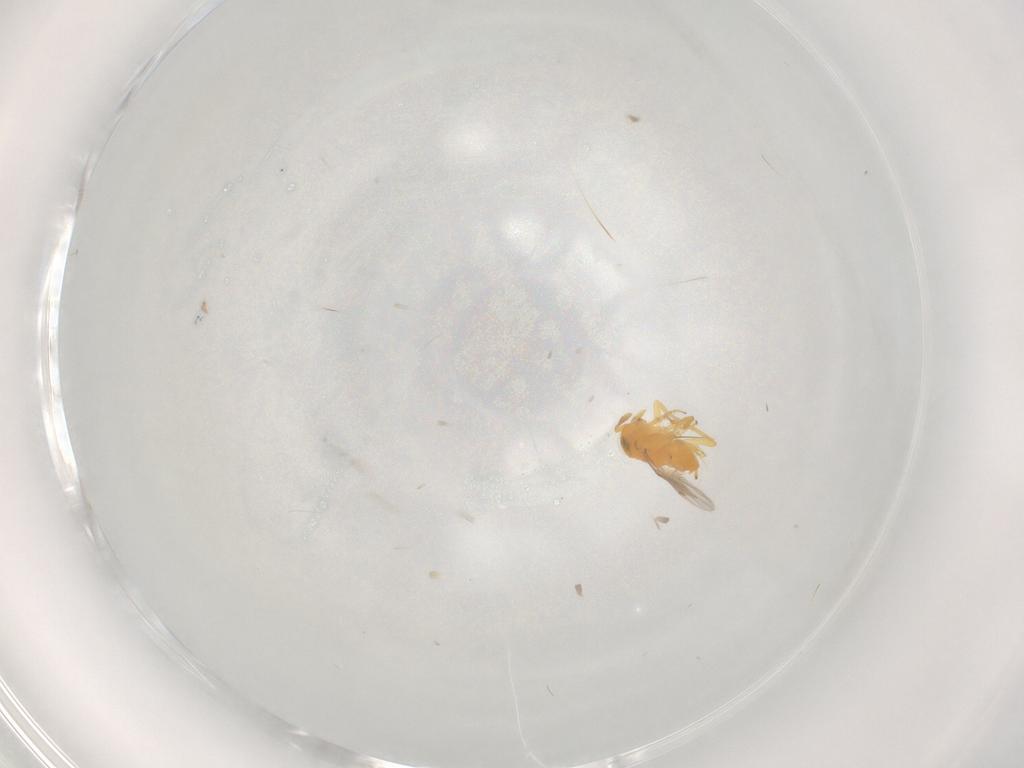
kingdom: Animalia
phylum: Arthropoda
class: Insecta
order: Hymenoptera
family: Encyrtidae
